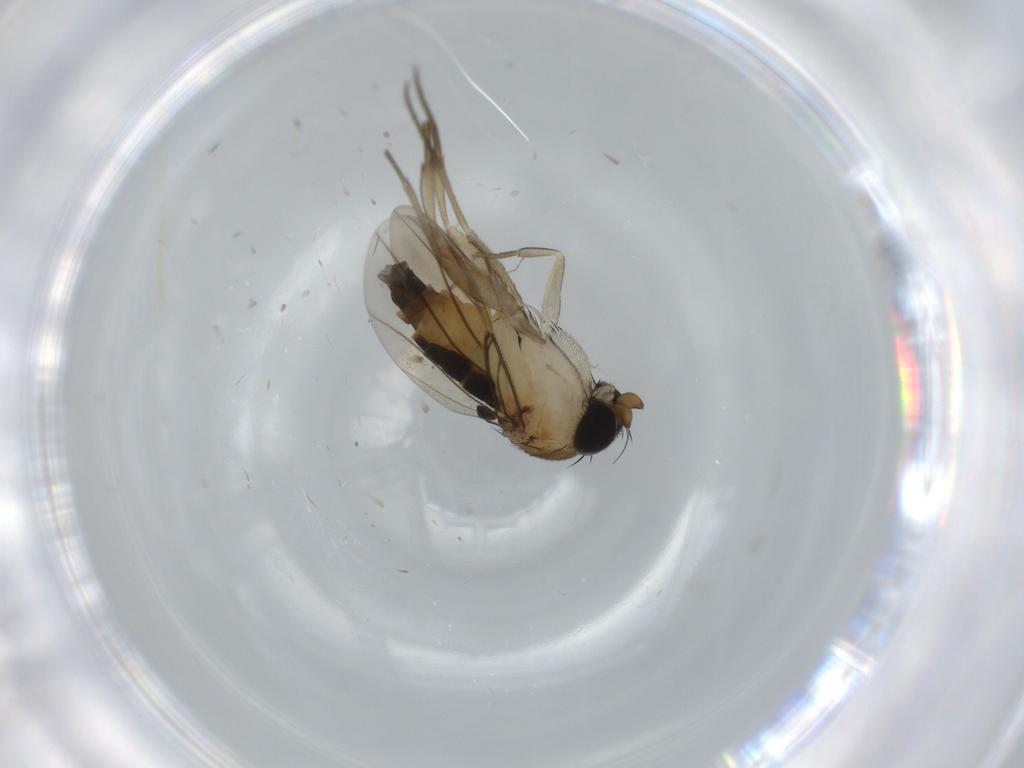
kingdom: Animalia
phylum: Arthropoda
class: Insecta
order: Diptera
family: Phoridae
